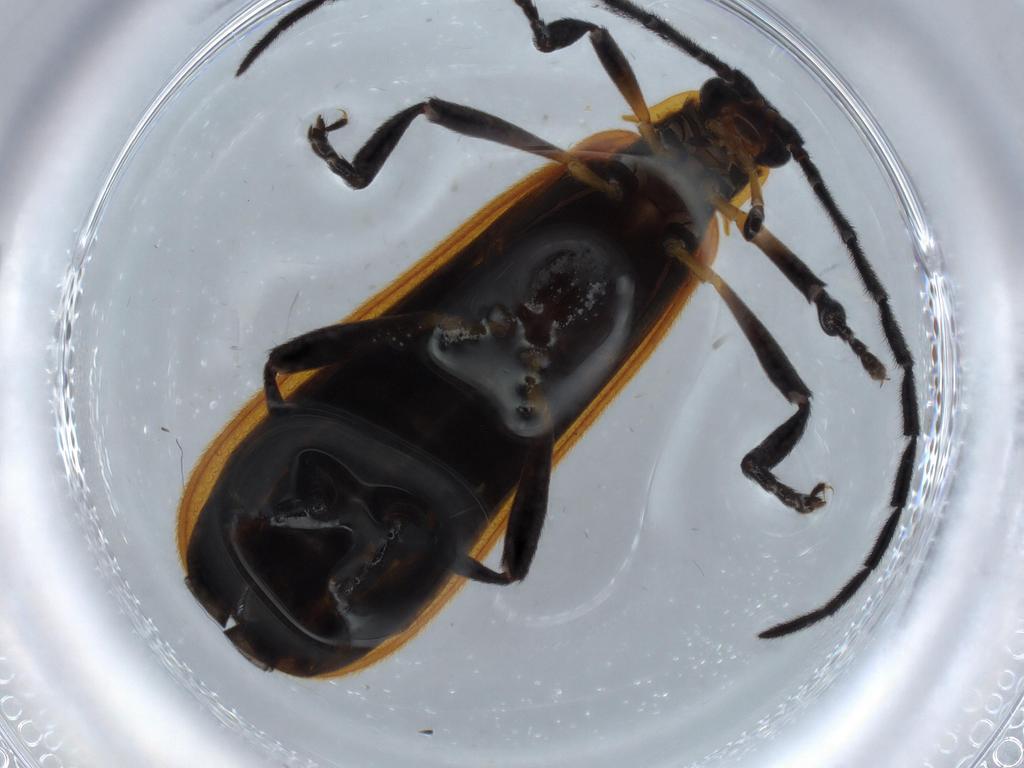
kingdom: Animalia
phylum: Arthropoda
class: Insecta
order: Coleoptera
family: Lycidae
